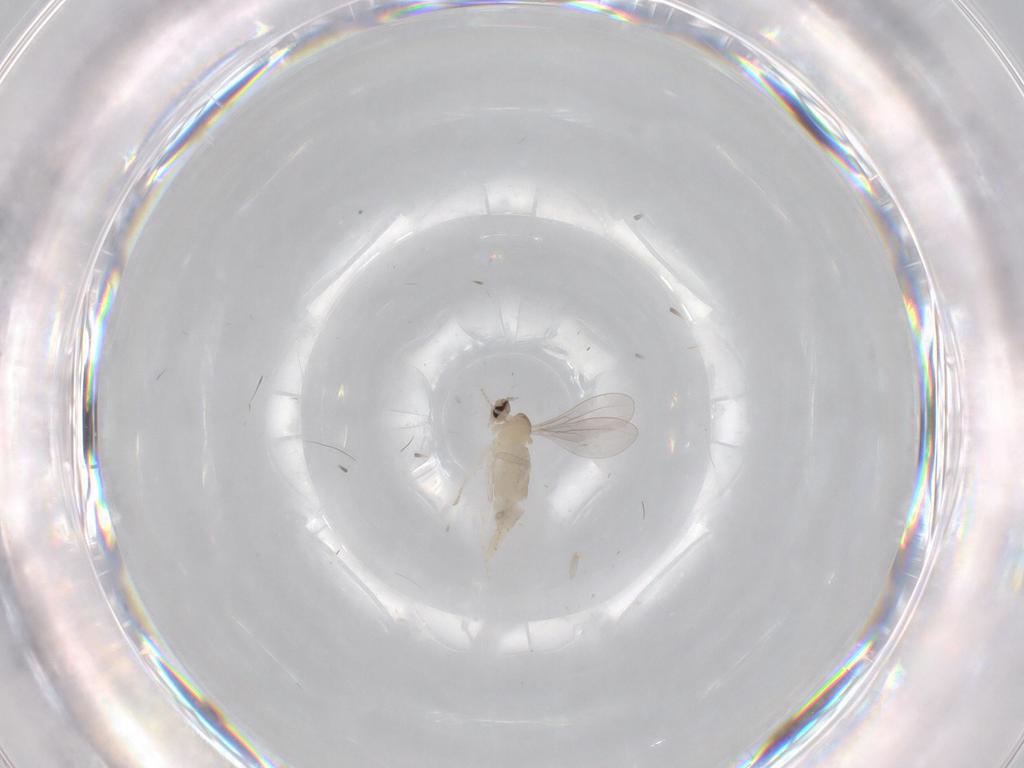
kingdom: Animalia
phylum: Arthropoda
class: Insecta
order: Diptera
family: Cecidomyiidae
